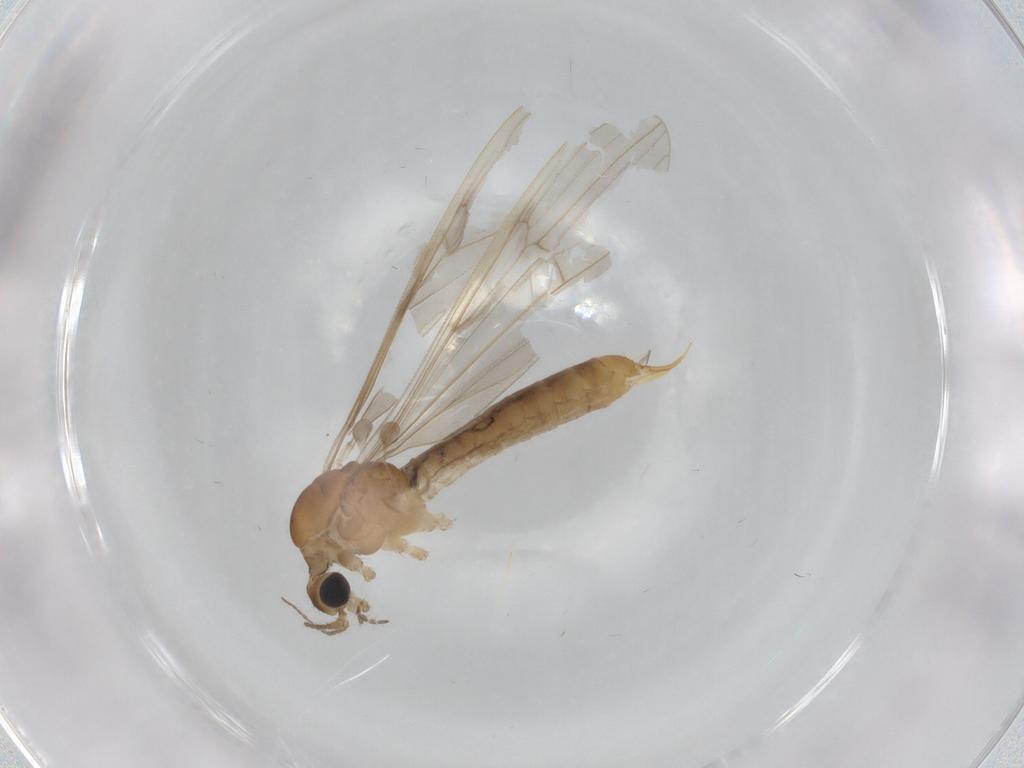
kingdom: Animalia
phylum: Arthropoda
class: Insecta
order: Diptera
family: Limoniidae
